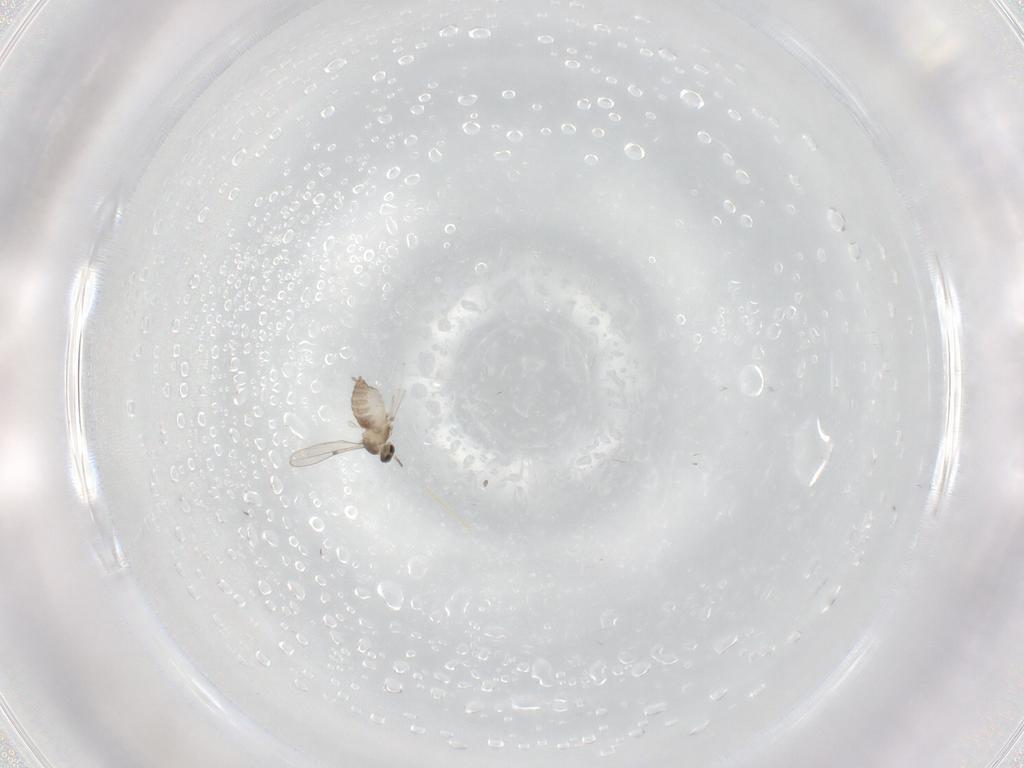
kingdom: Animalia
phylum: Arthropoda
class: Insecta
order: Diptera
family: Cecidomyiidae
